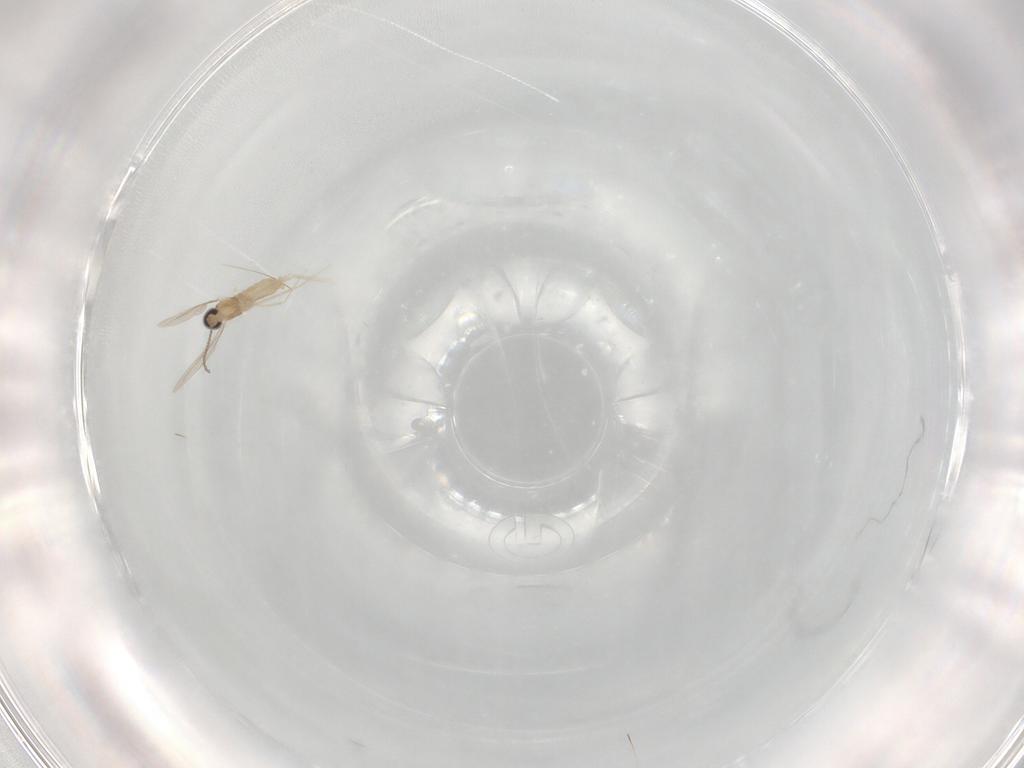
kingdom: Animalia
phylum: Arthropoda
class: Insecta
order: Diptera
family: Cecidomyiidae
